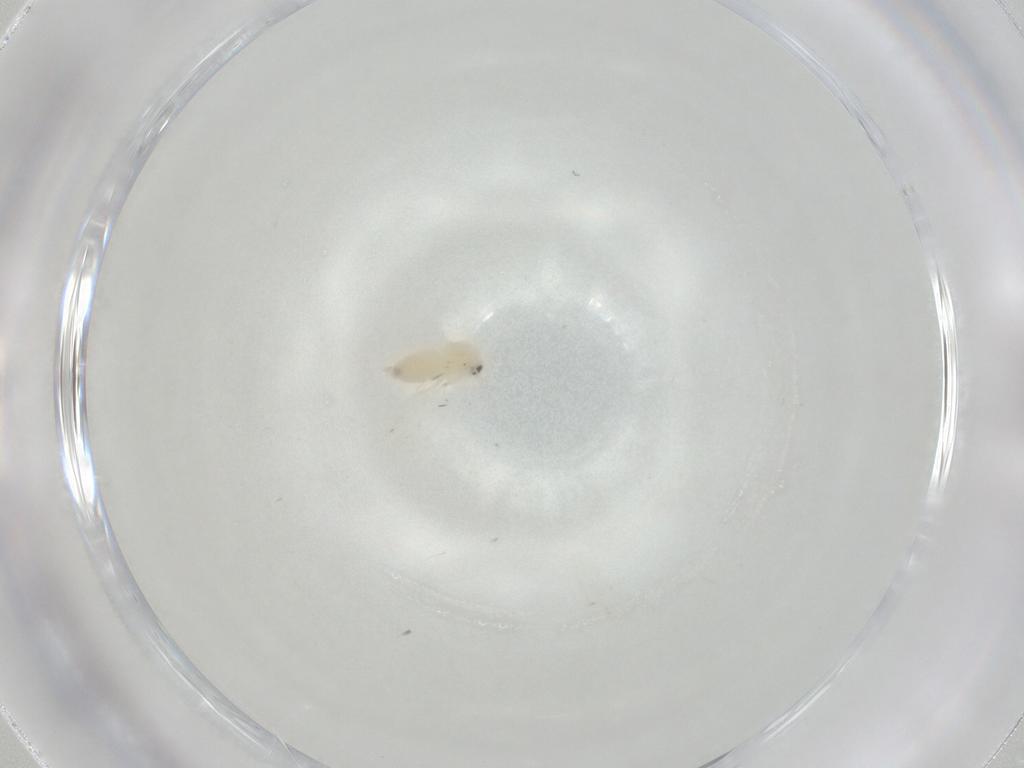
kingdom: Animalia
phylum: Arthropoda
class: Insecta
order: Hemiptera
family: Aleyrodidae
